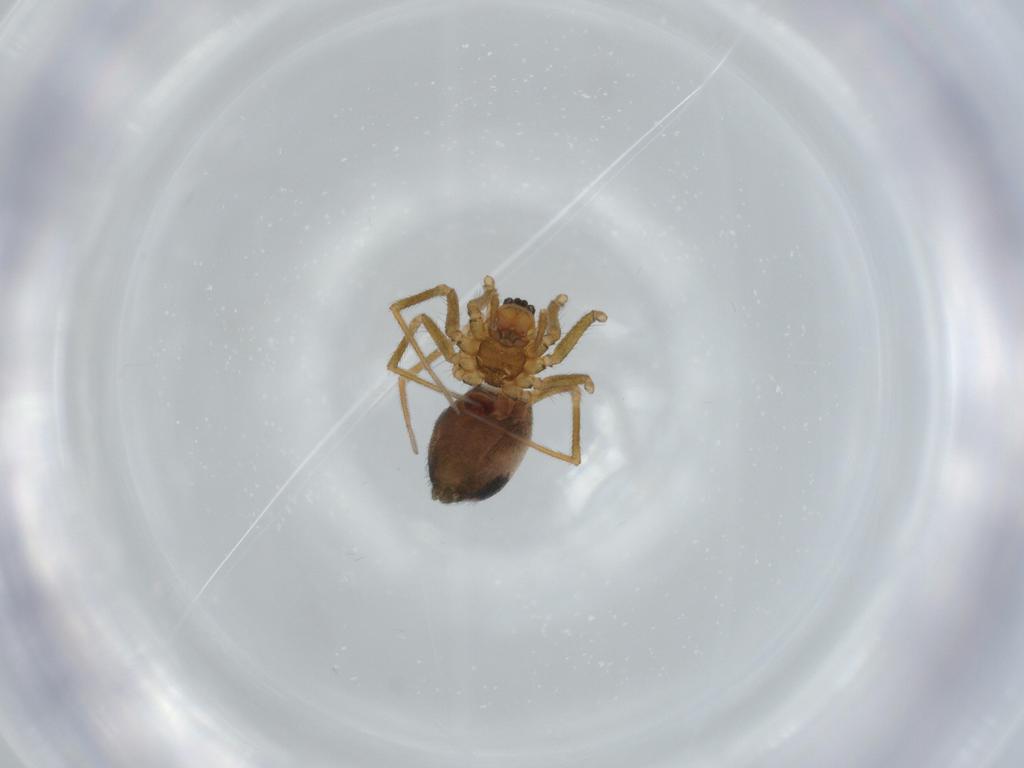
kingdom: Animalia
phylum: Arthropoda
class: Arachnida
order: Araneae
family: Linyphiidae
